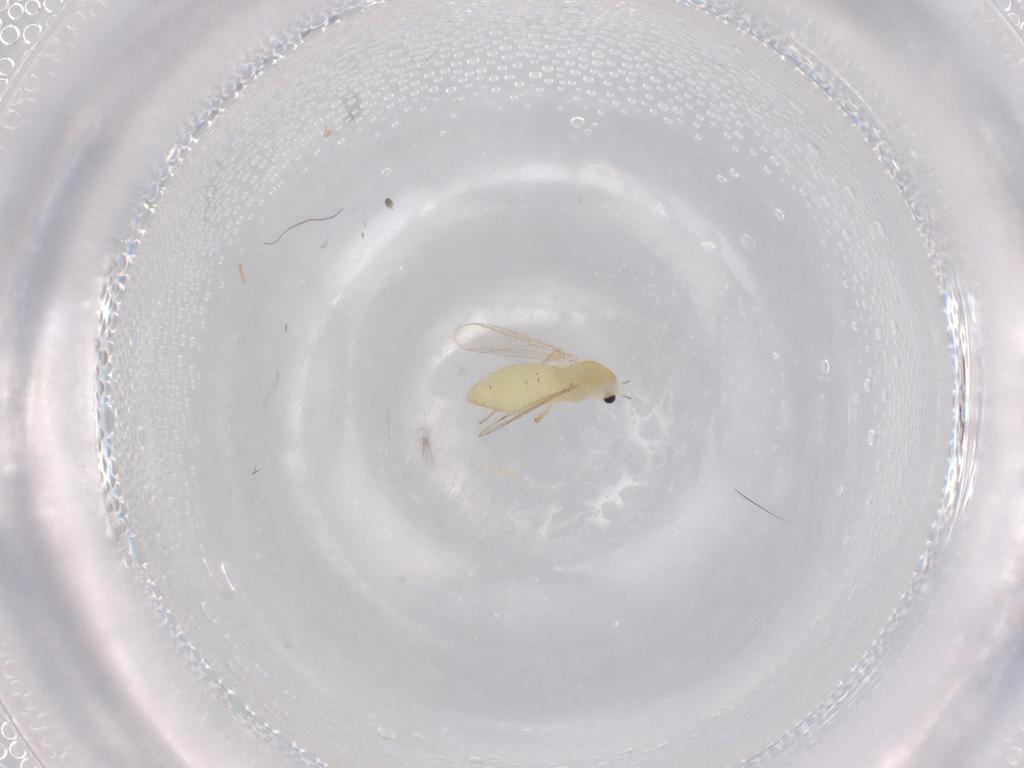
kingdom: Animalia
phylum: Arthropoda
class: Insecta
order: Diptera
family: Chironomidae
